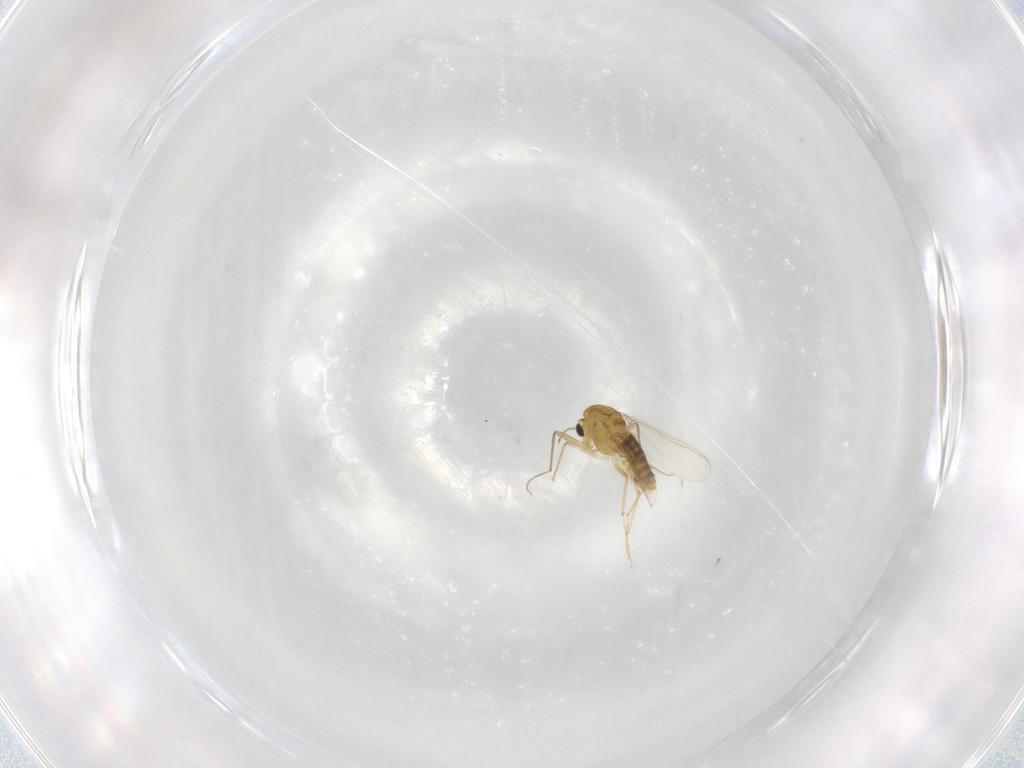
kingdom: Animalia
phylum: Arthropoda
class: Insecta
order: Diptera
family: Chironomidae
